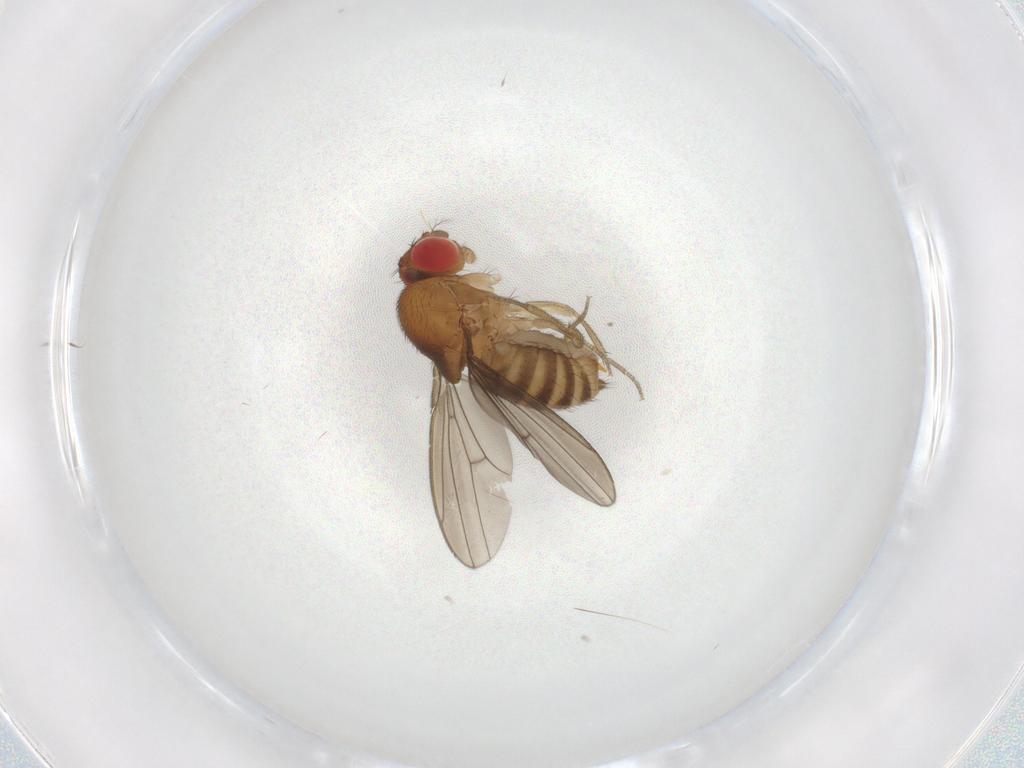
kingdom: Animalia
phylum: Arthropoda
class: Insecta
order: Diptera
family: Drosophilidae
